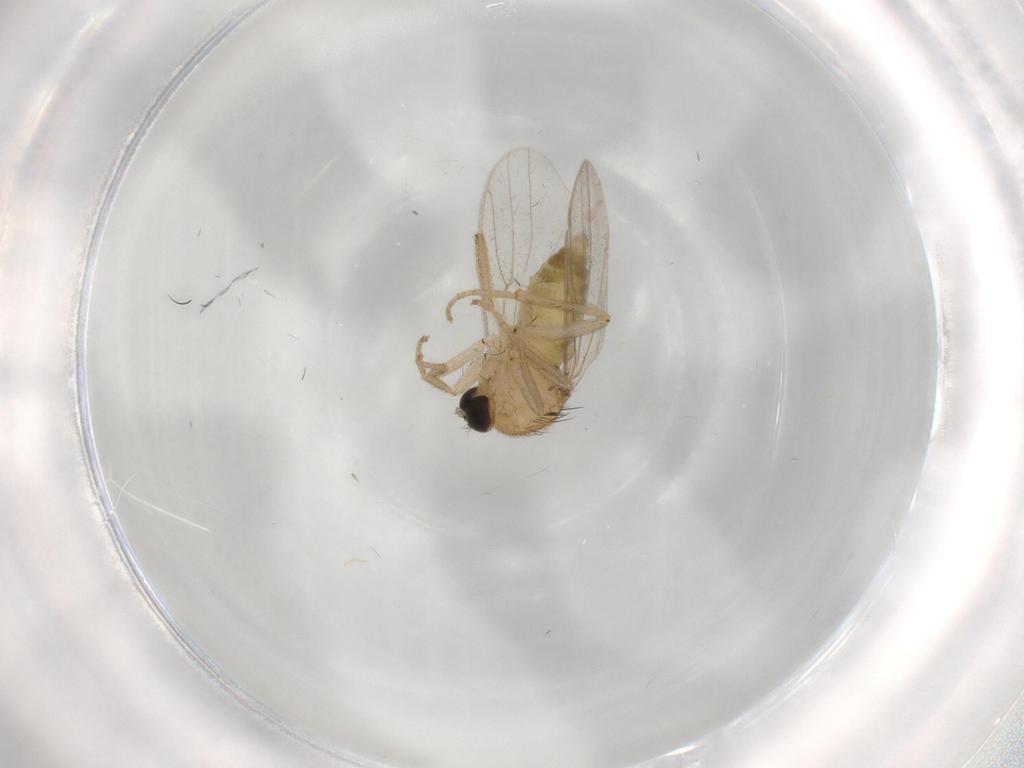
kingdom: Animalia
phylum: Arthropoda
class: Insecta
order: Diptera
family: Hybotidae
